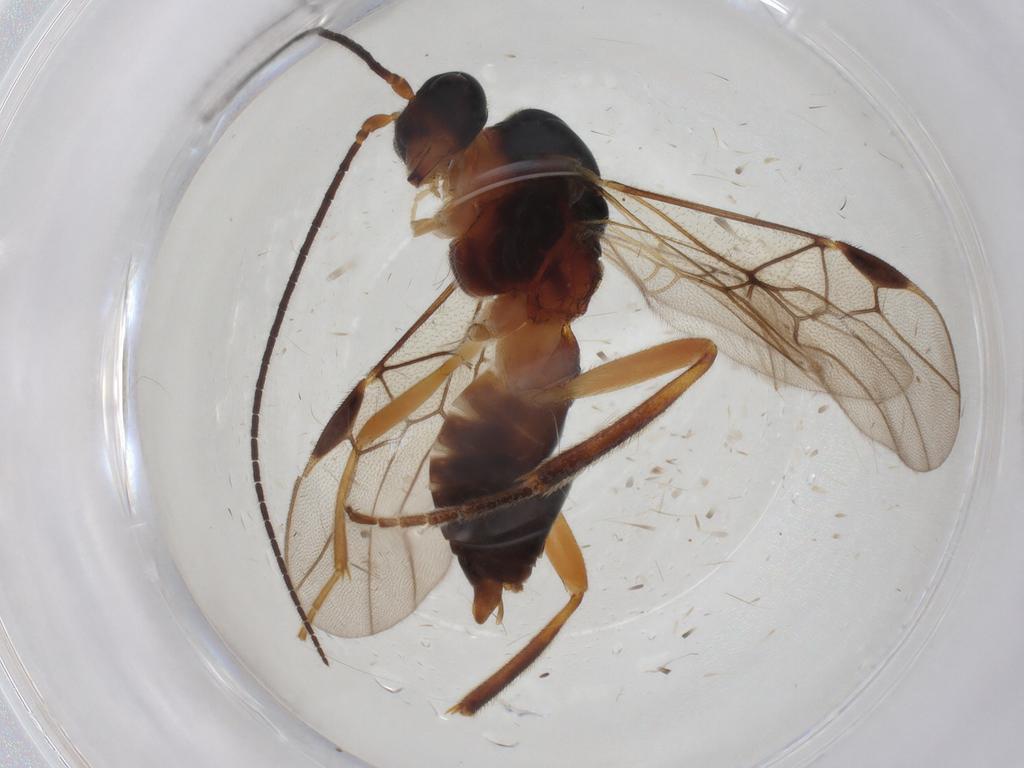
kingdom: Animalia
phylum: Arthropoda
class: Insecta
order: Hymenoptera
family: Braconidae
